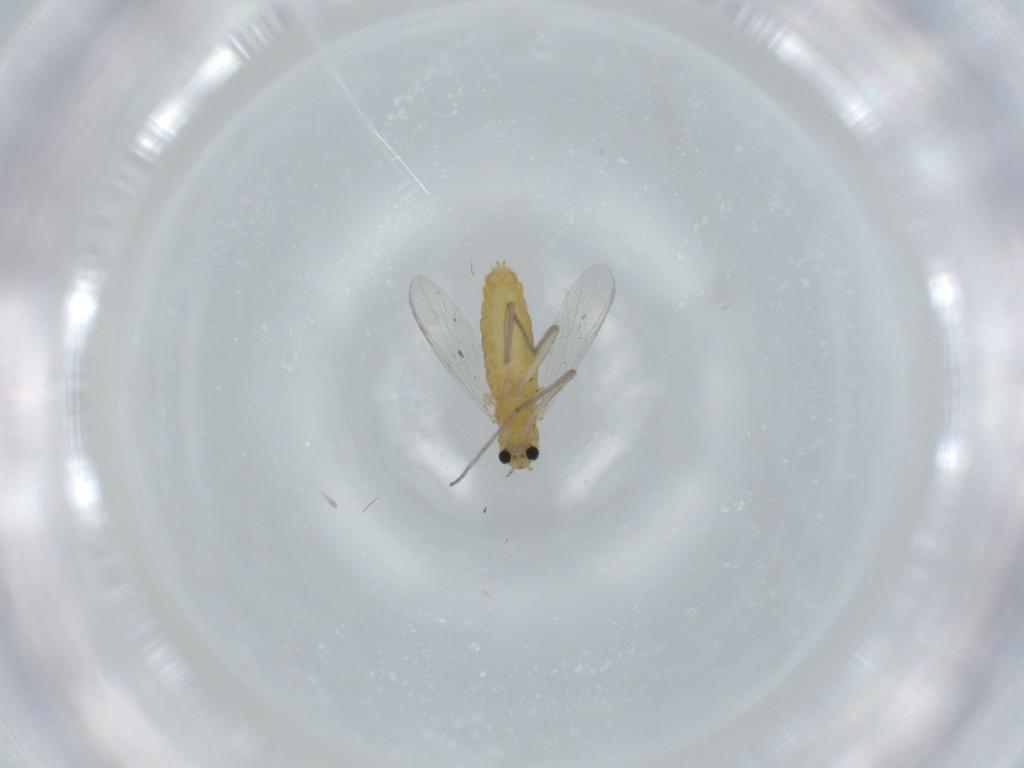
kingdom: Animalia
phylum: Arthropoda
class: Insecta
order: Diptera
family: Chironomidae
